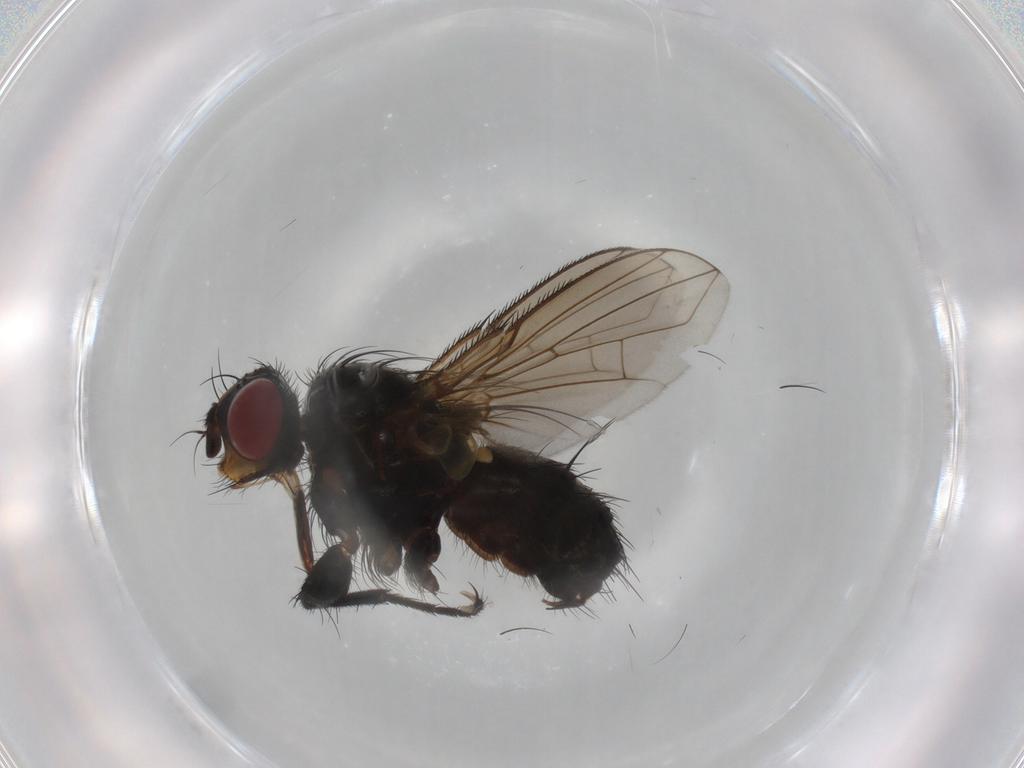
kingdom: Animalia
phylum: Arthropoda
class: Insecta
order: Diptera
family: Calliphoridae
